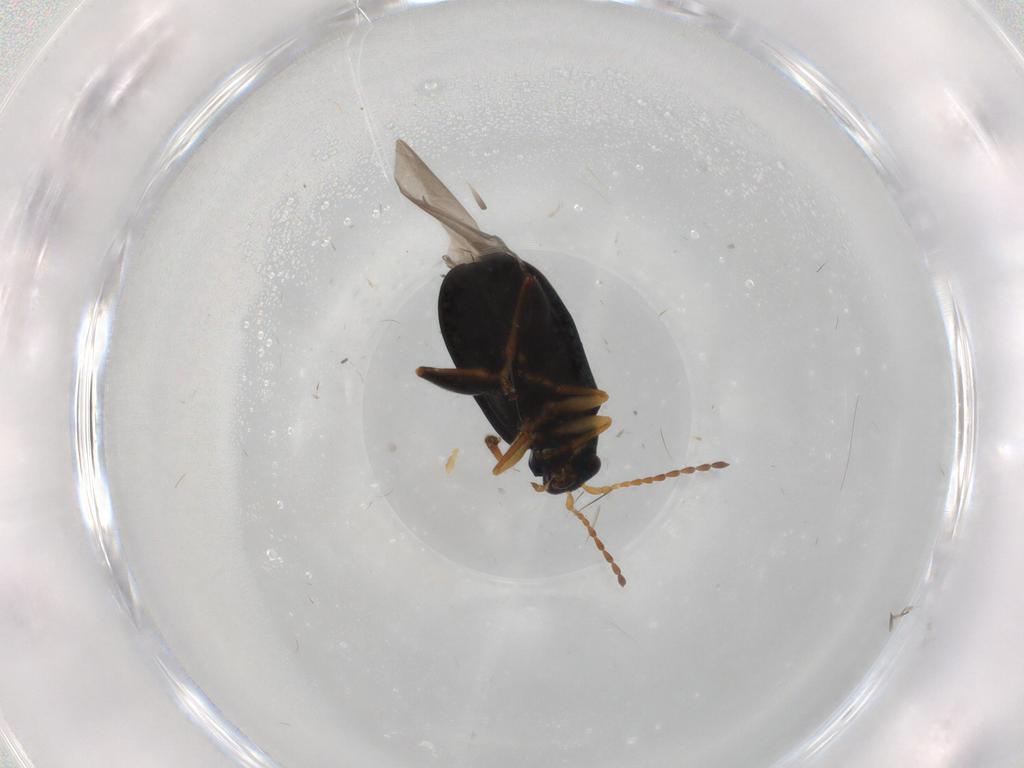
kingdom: Animalia
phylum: Arthropoda
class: Insecta
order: Coleoptera
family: Chrysomelidae
